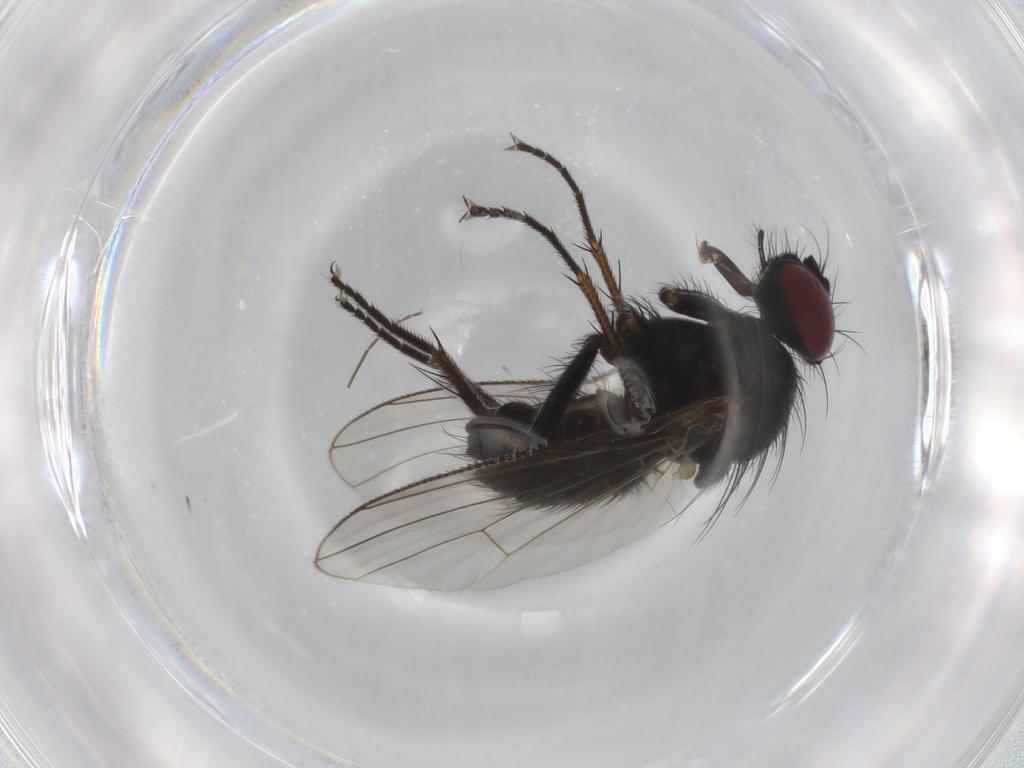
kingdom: Animalia
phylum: Arthropoda
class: Insecta
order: Diptera
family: Muscidae
